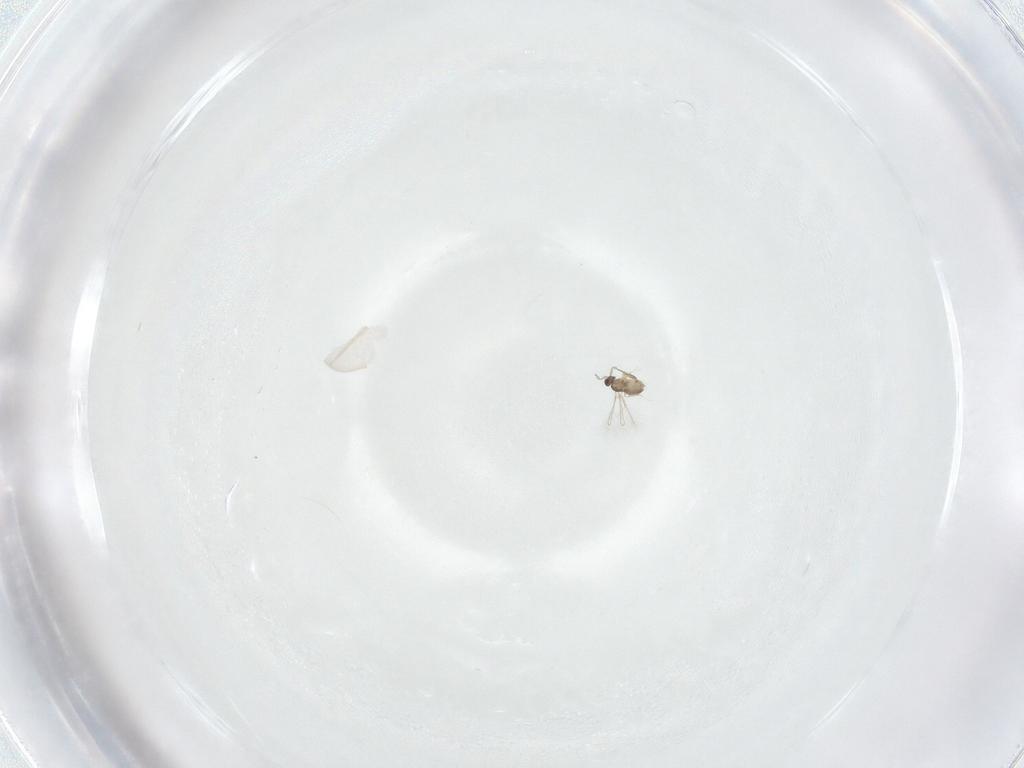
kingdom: Animalia
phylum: Arthropoda
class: Insecta
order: Hymenoptera
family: Mymaridae
